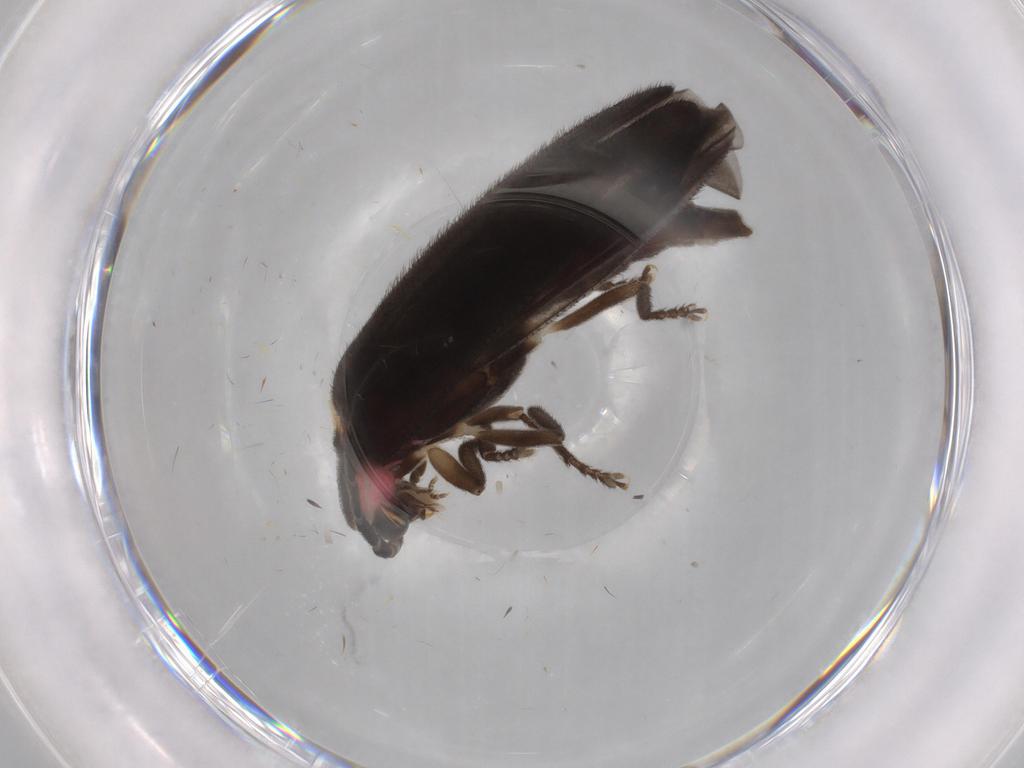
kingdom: Animalia
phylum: Arthropoda
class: Insecta
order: Coleoptera
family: Lampyridae
